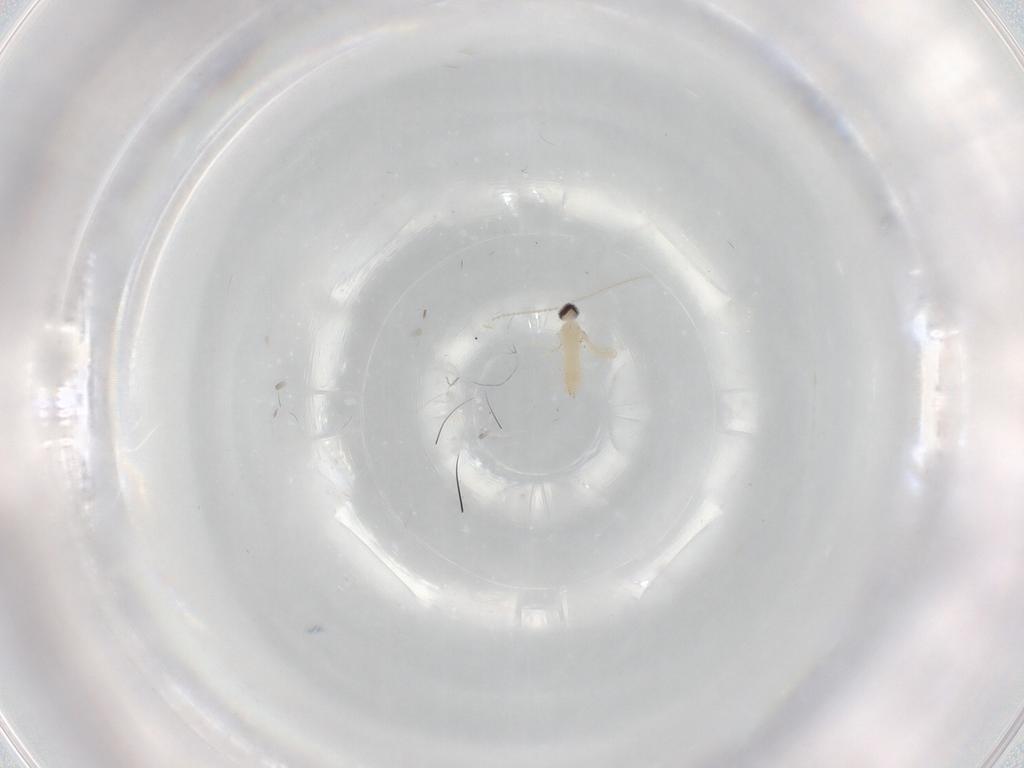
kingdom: Animalia
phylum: Arthropoda
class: Insecta
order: Diptera
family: Cecidomyiidae
